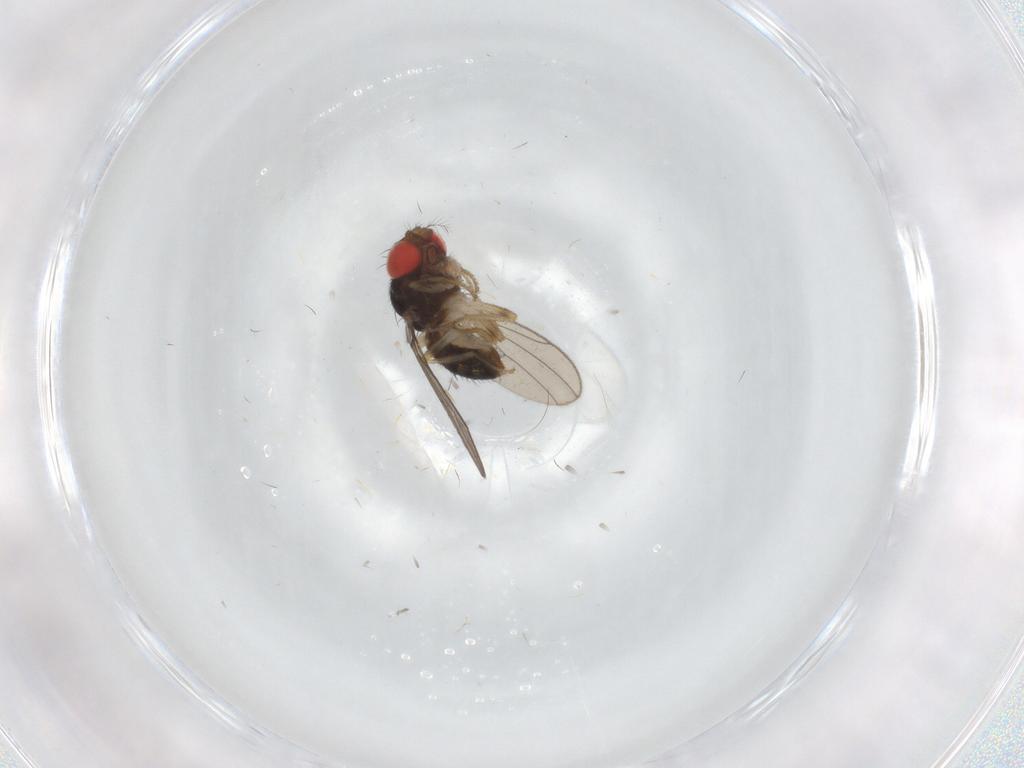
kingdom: Animalia
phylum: Arthropoda
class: Insecta
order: Diptera
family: Drosophilidae
